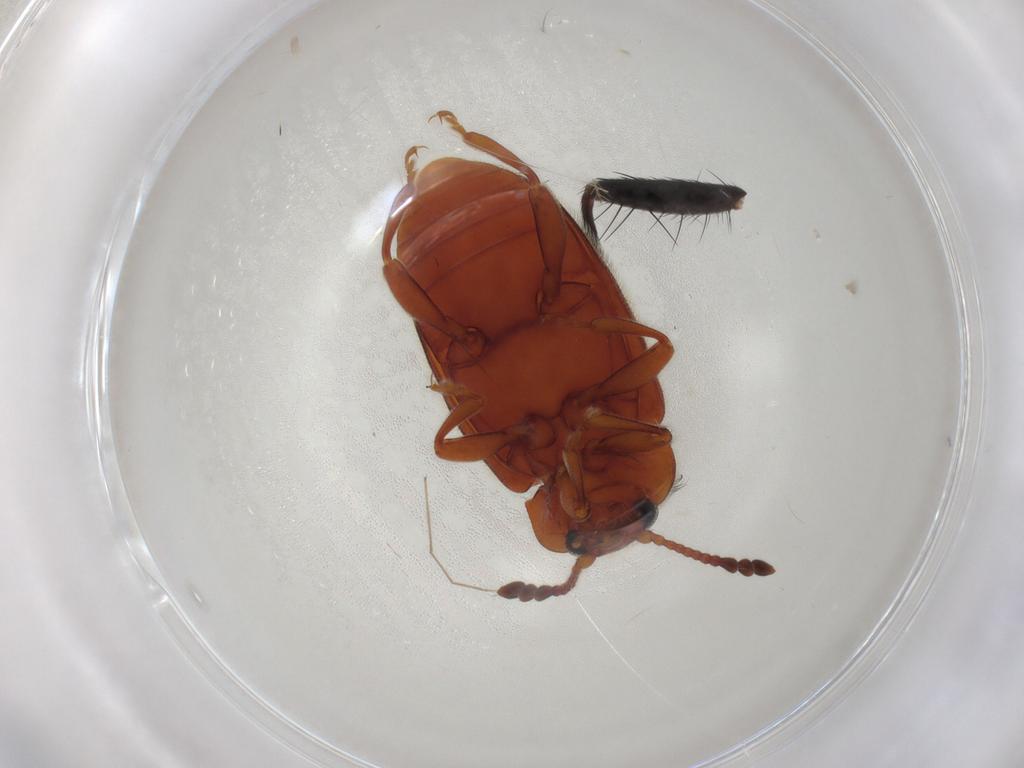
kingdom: Animalia
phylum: Arthropoda
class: Insecta
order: Coleoptera
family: Endomychidae
